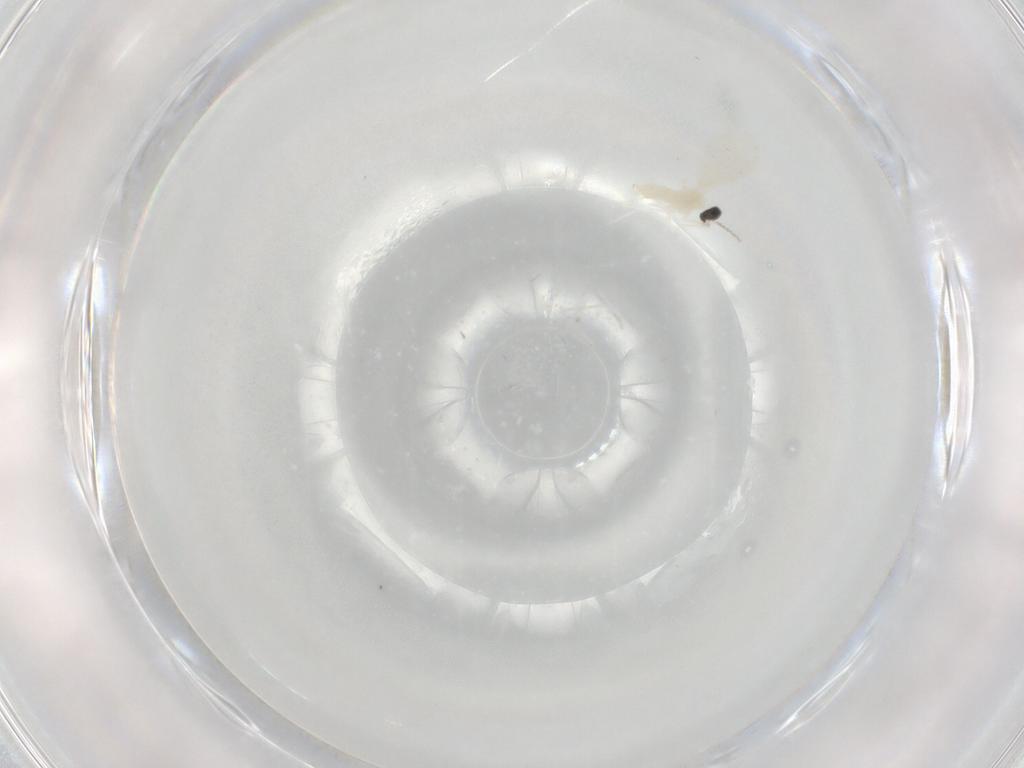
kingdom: Animalia
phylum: Arthropoda
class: Insecta
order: Diptera
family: Cecidomyiidae
